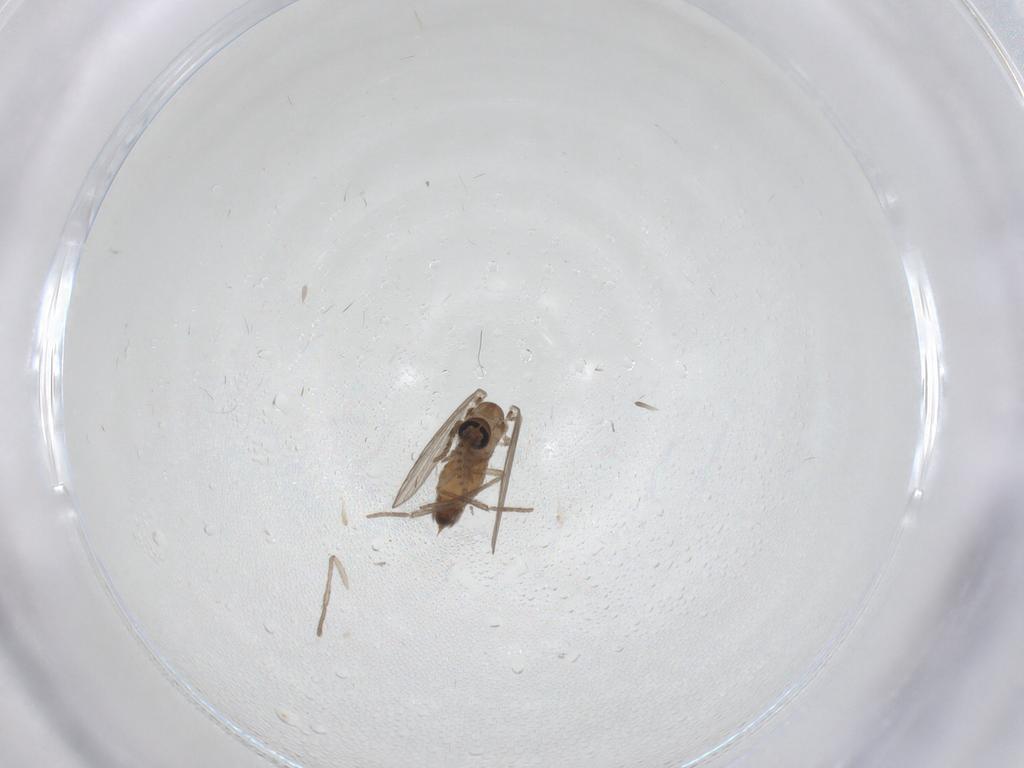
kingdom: Animalia
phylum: Arthropoda
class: Insecta
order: Diptera
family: Psychodidae
